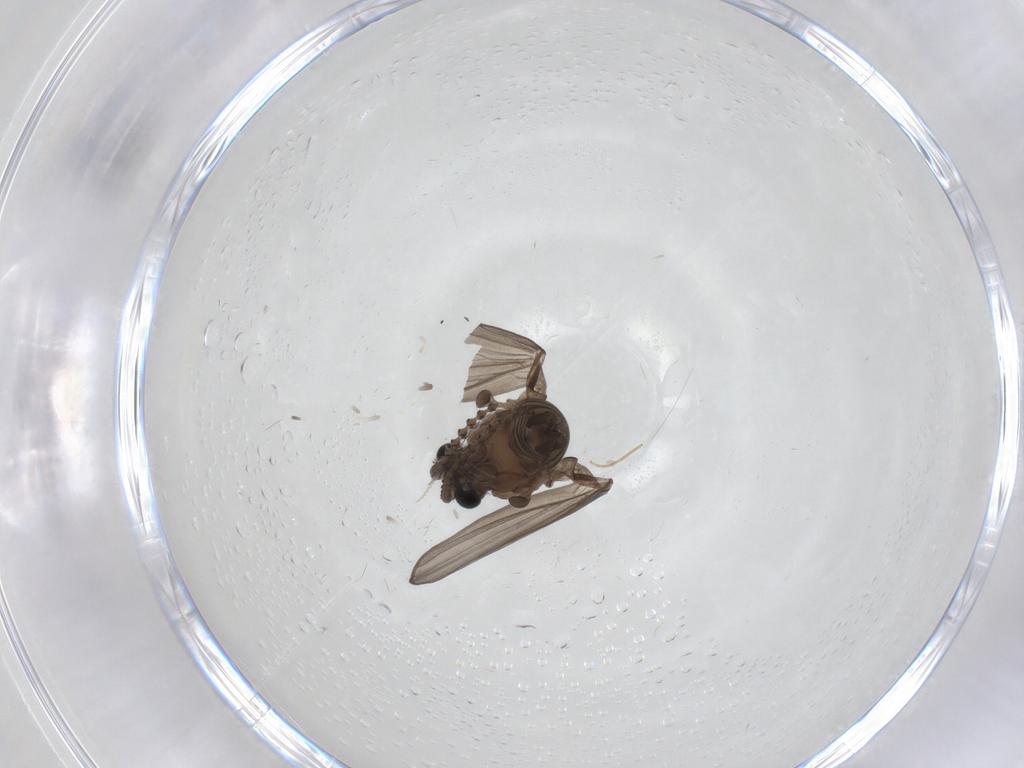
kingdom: Animalia
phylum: Arthropoda
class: Insecta
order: Diptera
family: Psychodidae
